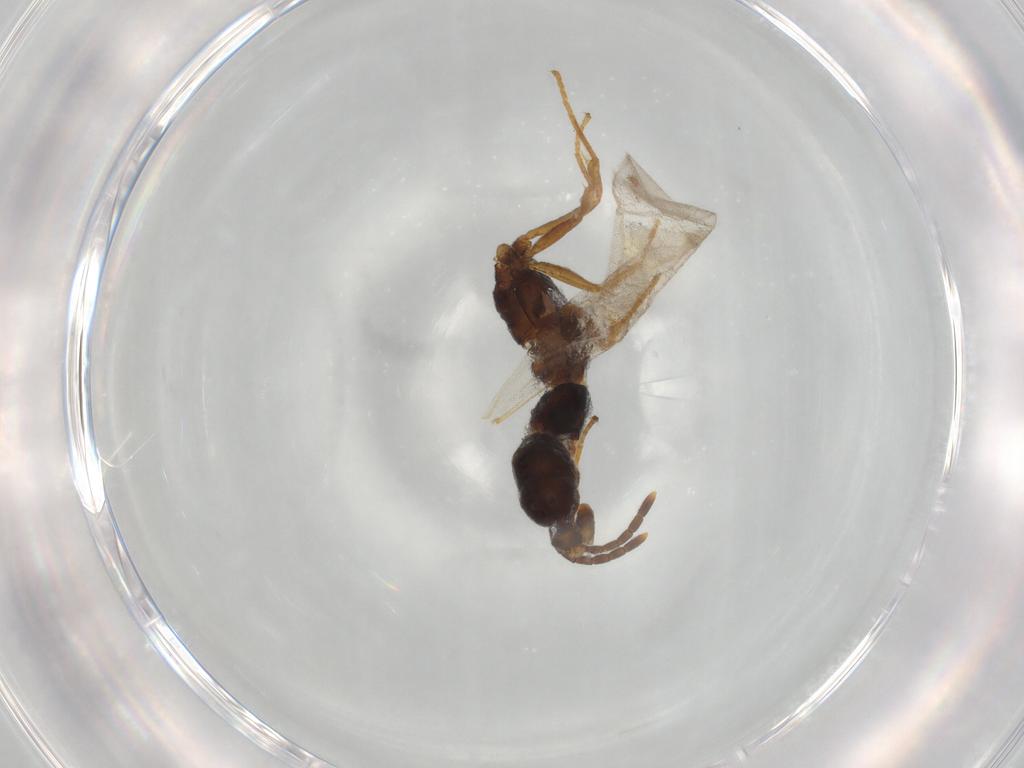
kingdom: Animalia
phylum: Arthropoda
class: Insecta
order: Hymenoptera
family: Formicidae
